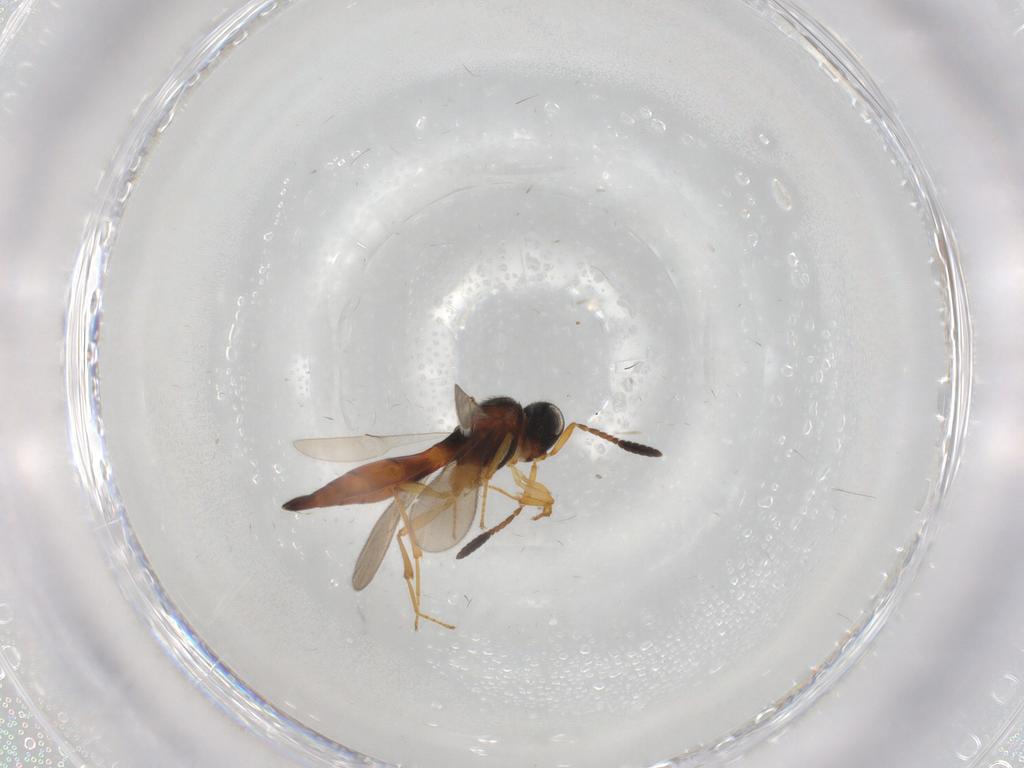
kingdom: Animalia
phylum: Arthropoda
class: Insecta
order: Hymenoptera
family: Scelionidae
